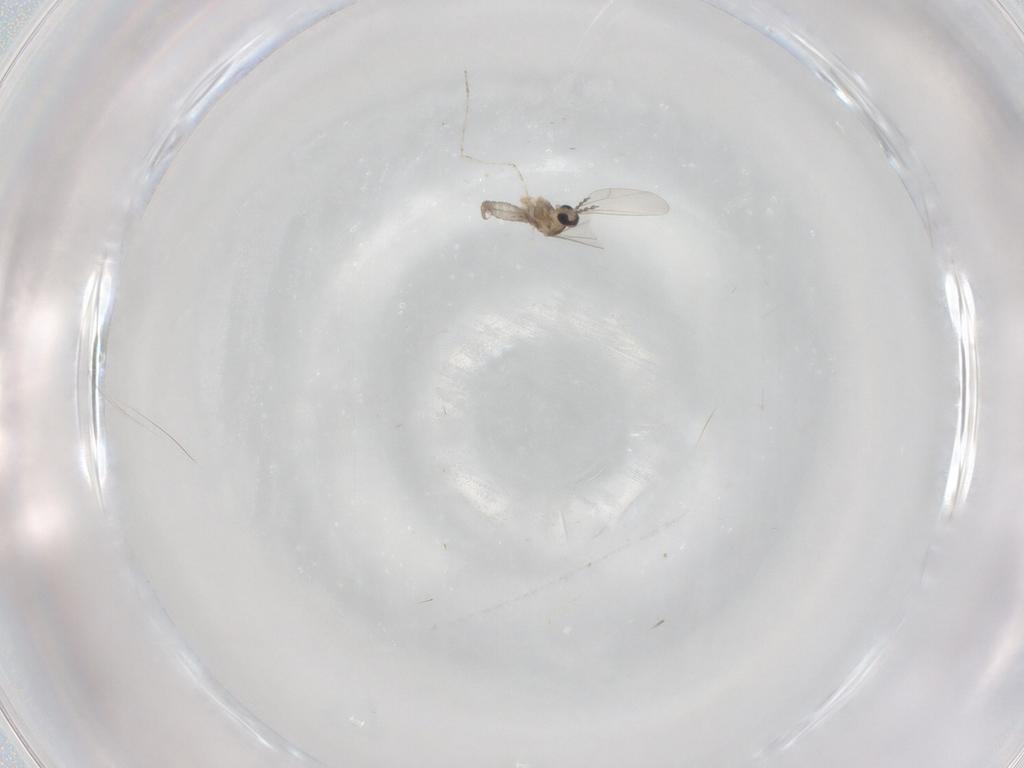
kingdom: Animalia
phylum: Arthropoda
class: Insecta
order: Diptera
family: Cecidomyiidae
